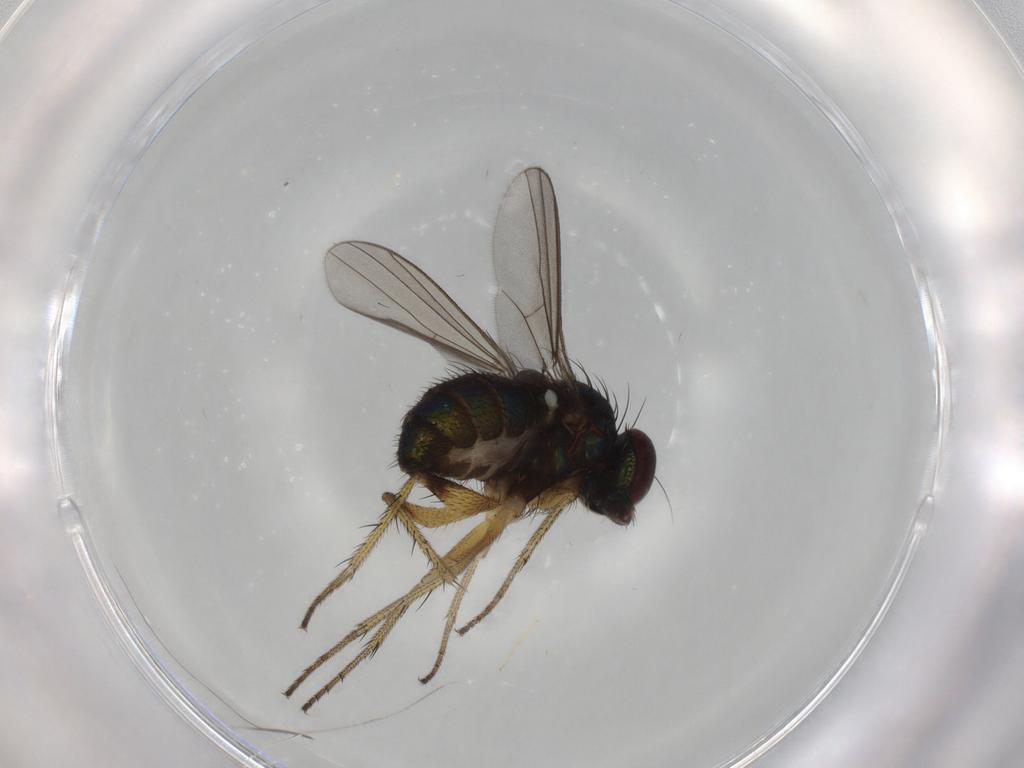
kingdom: Animalia
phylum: Arthropoda
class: Insecta
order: Diptera
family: Dolichopodidae
